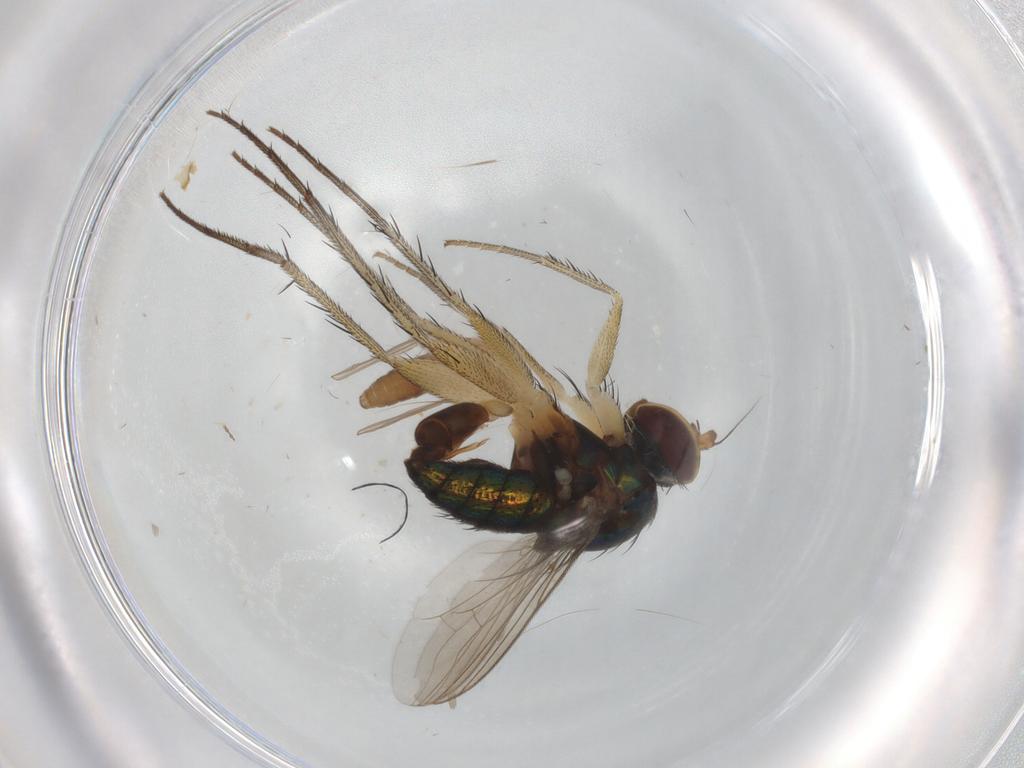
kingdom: Animalia
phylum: Arthropoda
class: Insecta
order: Diptera
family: Dolichopodidae
